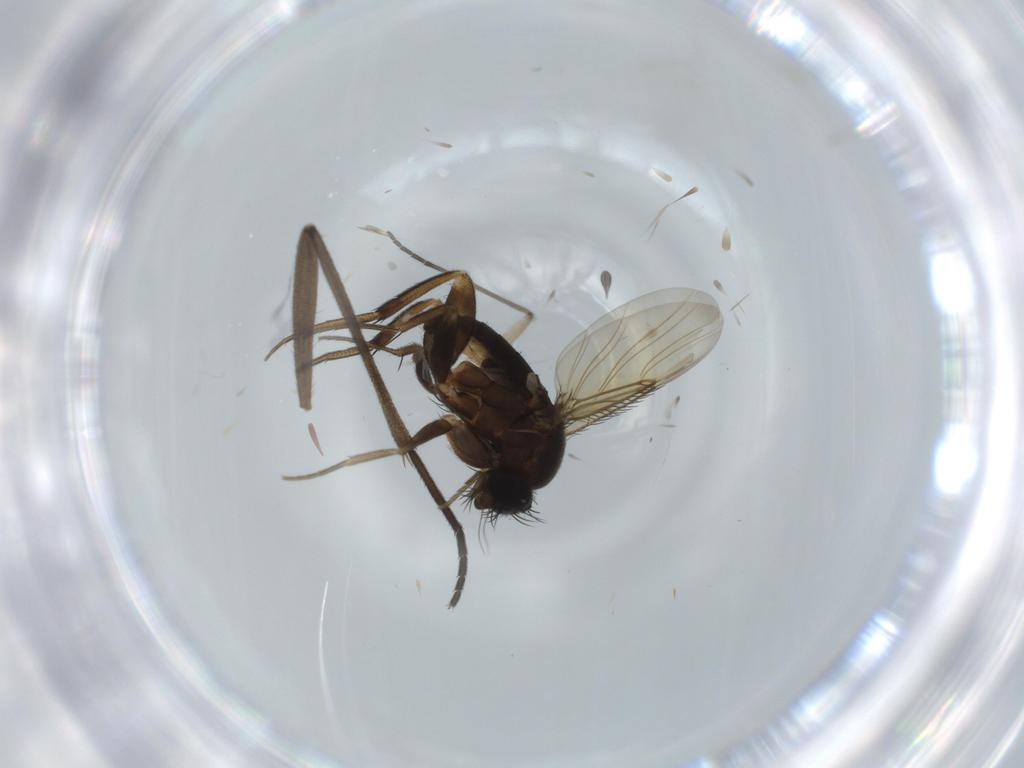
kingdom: Animalia
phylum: Arthropoda
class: Insecta
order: Diptera
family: Phoridae
